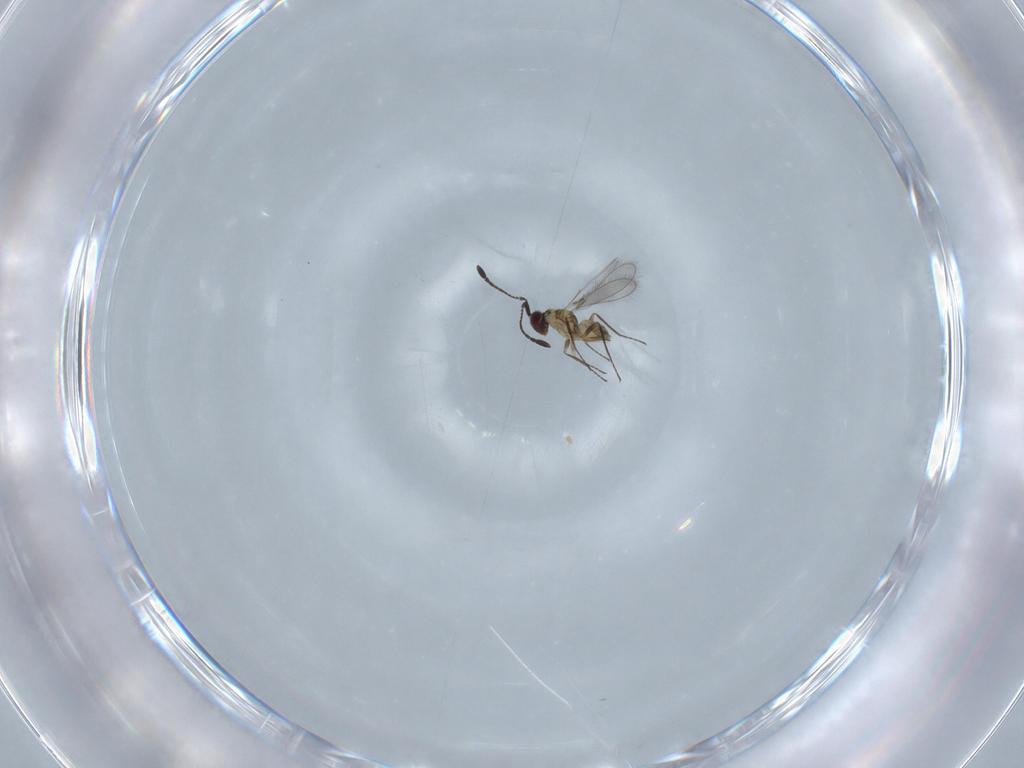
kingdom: Animalia
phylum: Arthropoda
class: Insecta
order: Hymenoptera
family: Mymaridae
